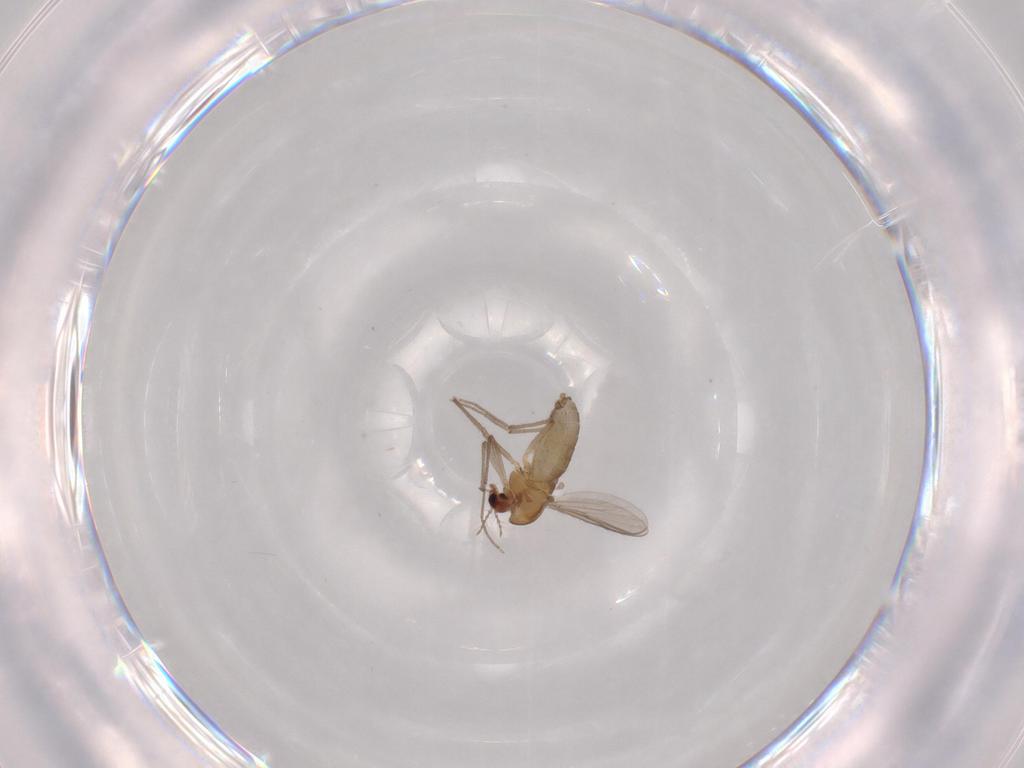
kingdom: Animalia
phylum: Arthropoda
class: Insecta
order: Diptera
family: Chironomidae
